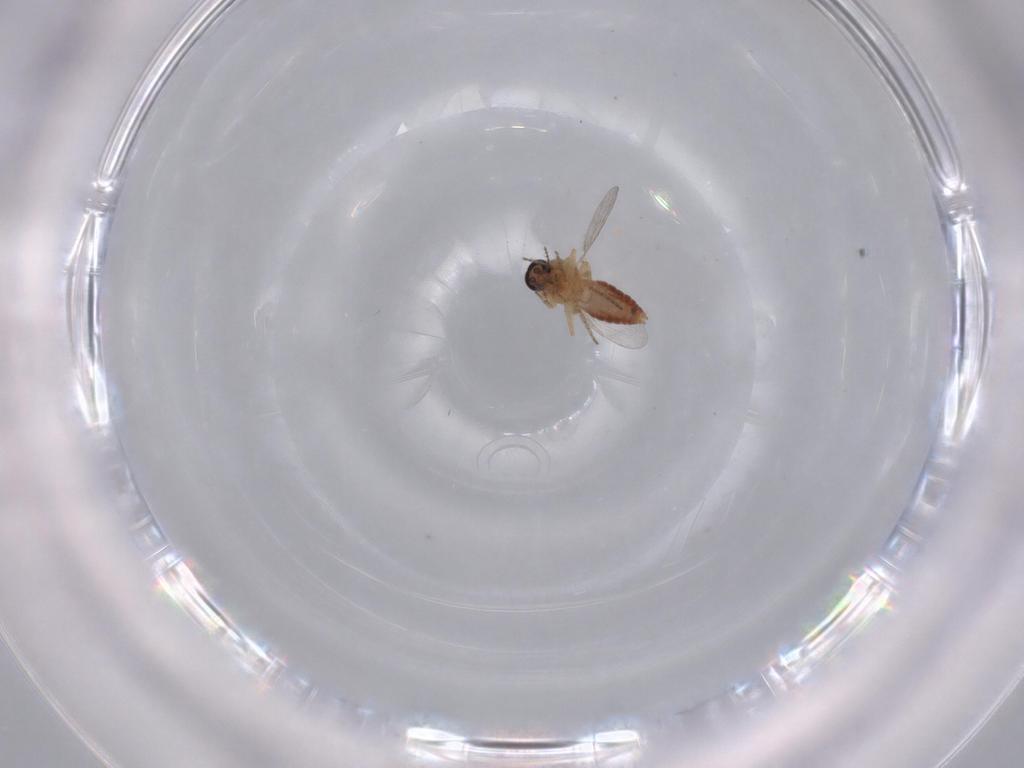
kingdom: Animalia
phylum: Arthropoda
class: Insecta
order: Diptera
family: Ceratopogonidae
